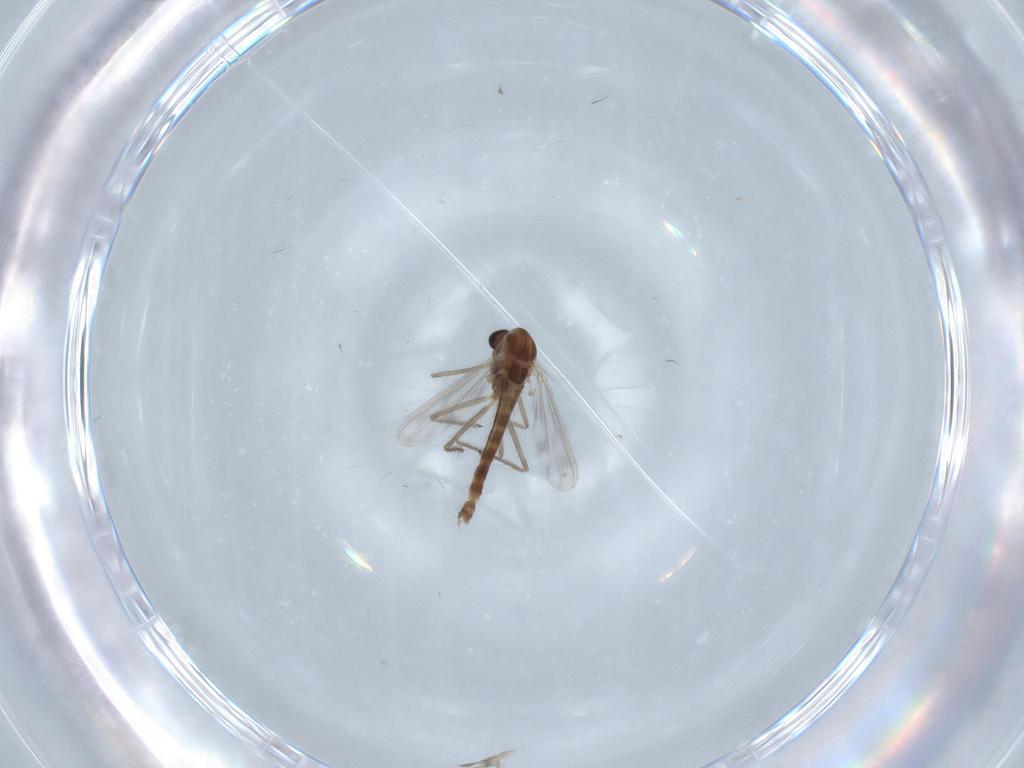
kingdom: Animalia
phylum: Arthropoda
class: Insecta
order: Diptera
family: Chironomidae
